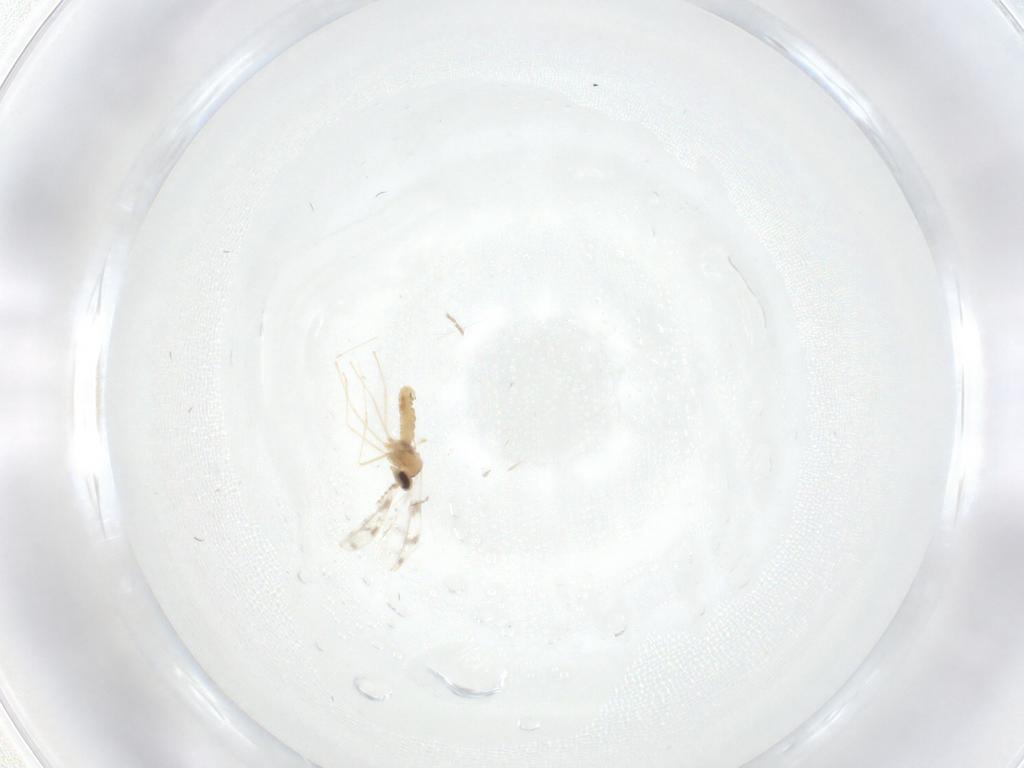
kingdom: Animalia
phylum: Arthropoda
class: Insecta
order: Diptera
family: Cecidomyiidae
